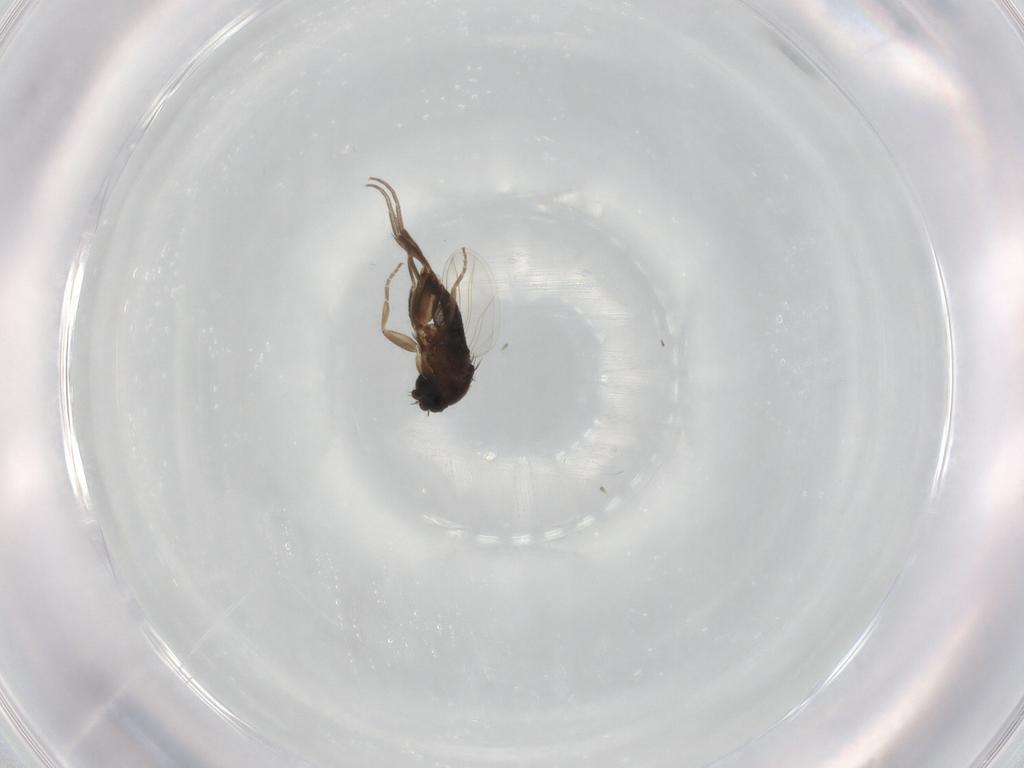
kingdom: Animalia
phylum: Arthropoda
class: Insecta
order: Diptera
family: Phoridae
